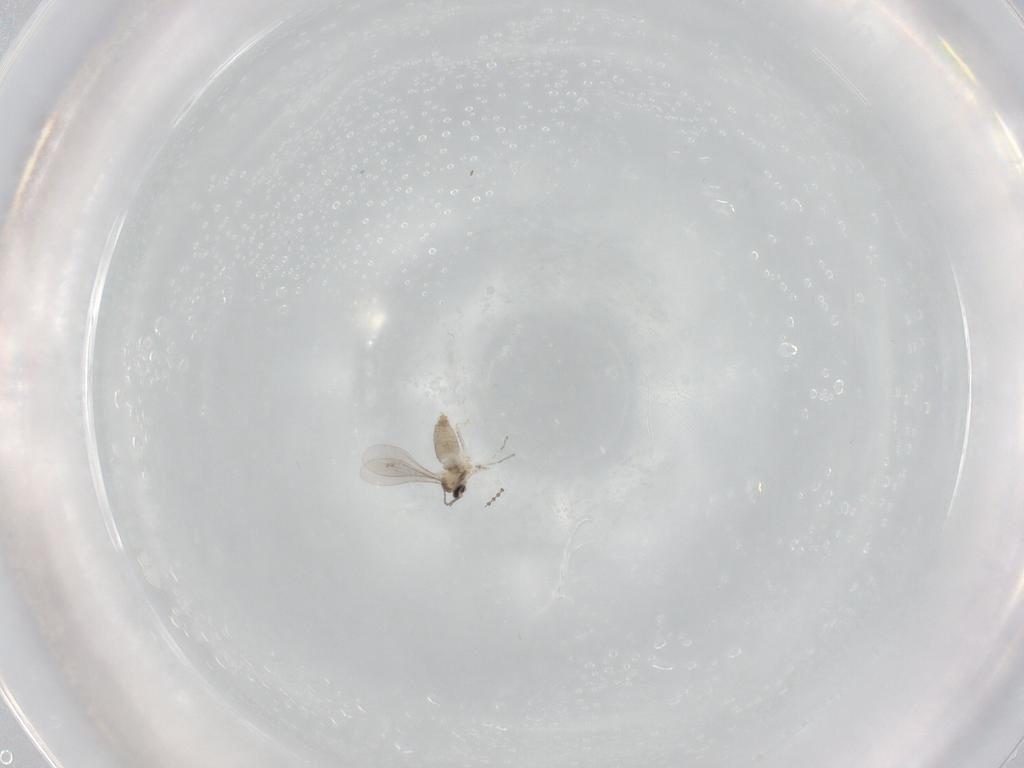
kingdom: Animalia
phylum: Arthropoda
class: Insecta
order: Diptera
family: Cecidomyiidae
